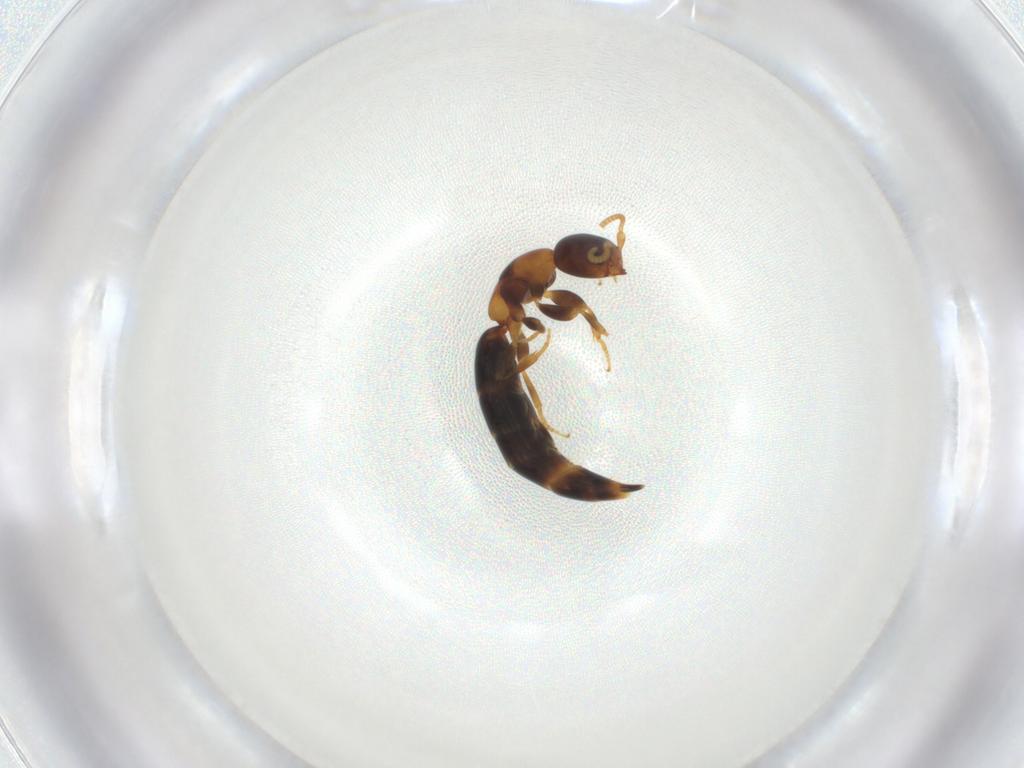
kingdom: Animalia
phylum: Arthropoda
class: Insecta
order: Hymenoptera
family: Bethylidae
